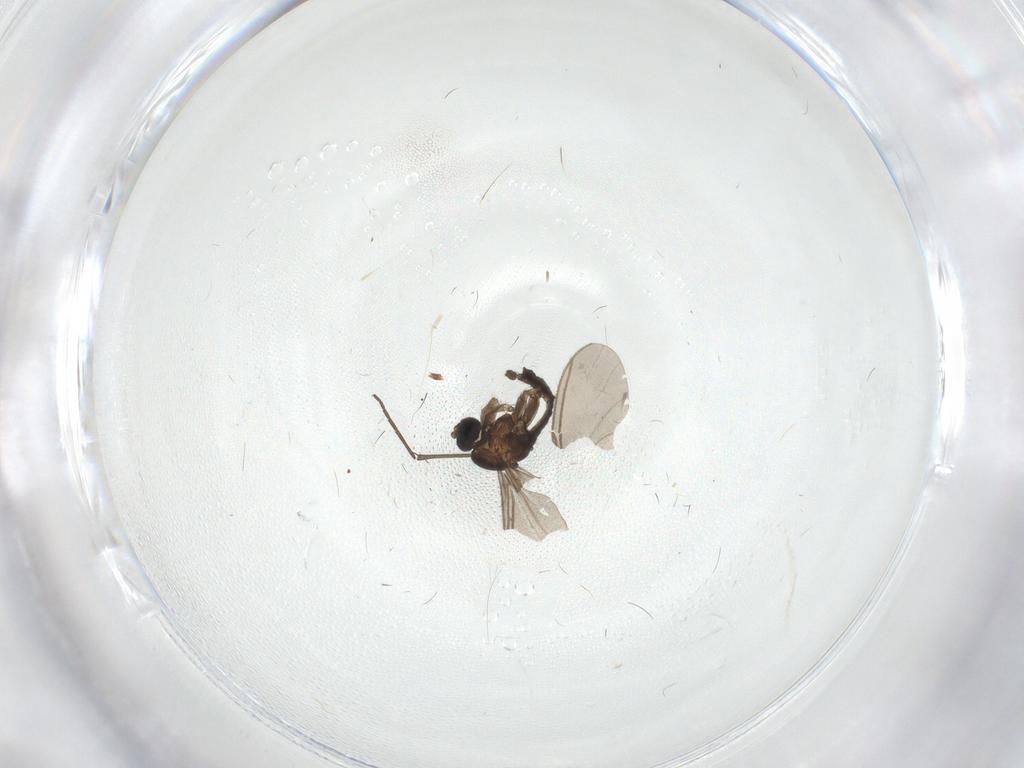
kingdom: Animalia
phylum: Arthropoda
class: Insecta
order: Diptera
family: Sciaridae
